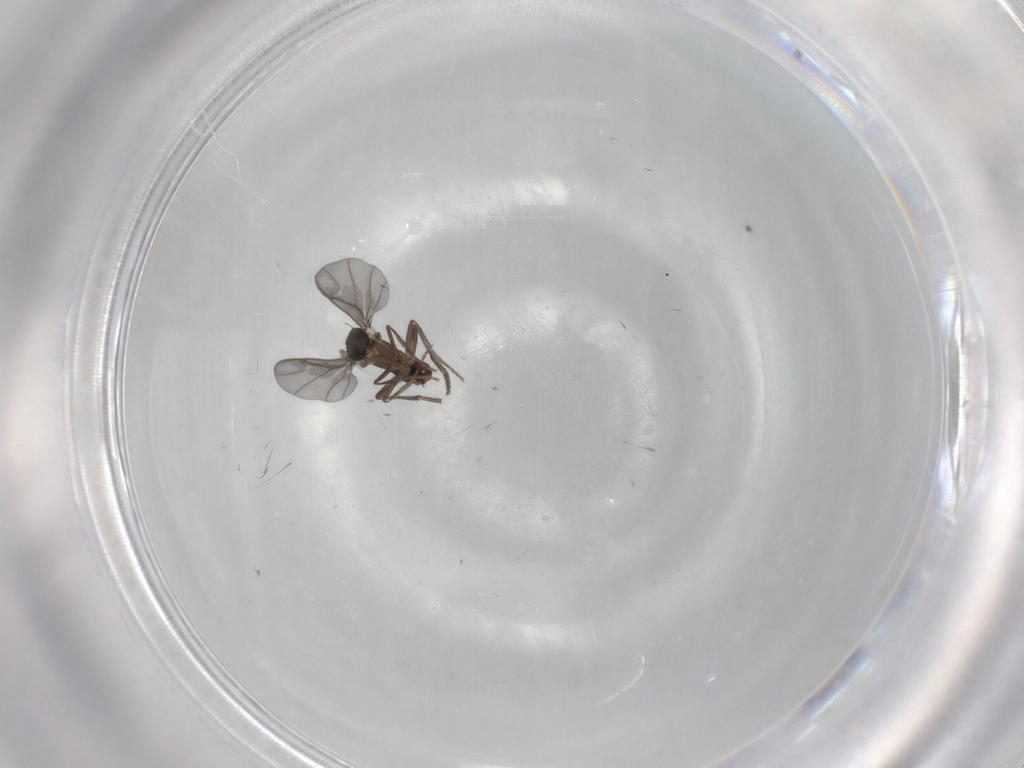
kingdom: Animalia
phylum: Arthropoda
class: Insecta
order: Diptera
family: Phoridae
